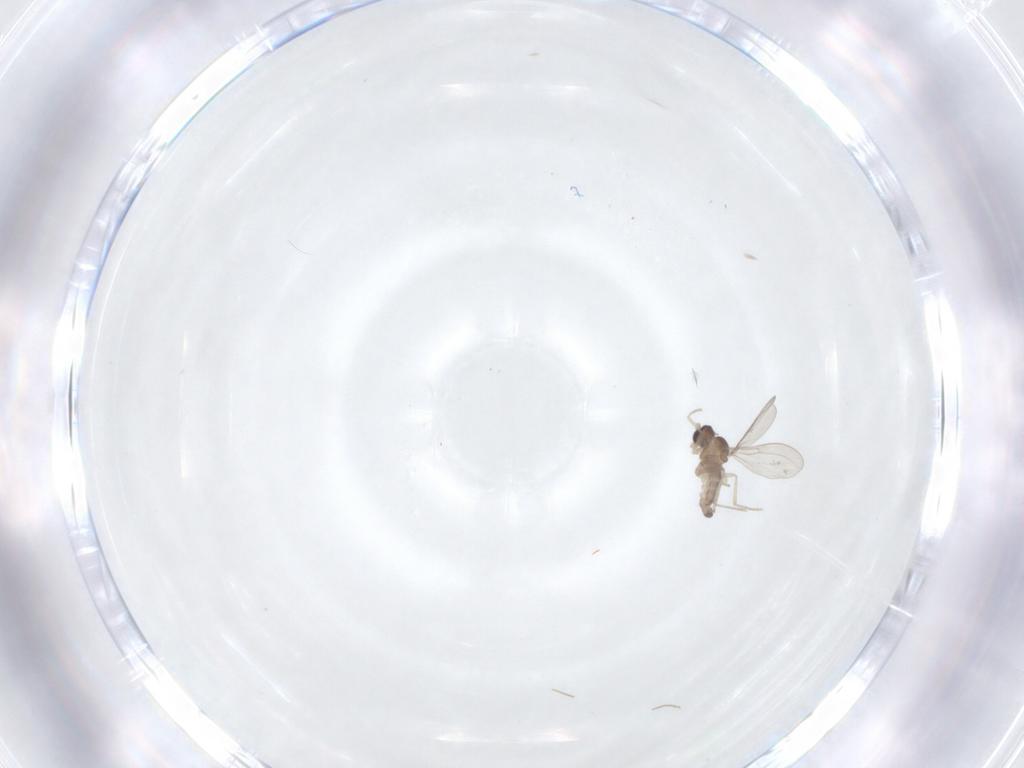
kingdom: Animalia
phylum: Arthropoda
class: Insecta
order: Diptera
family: Cecidomyiidae
